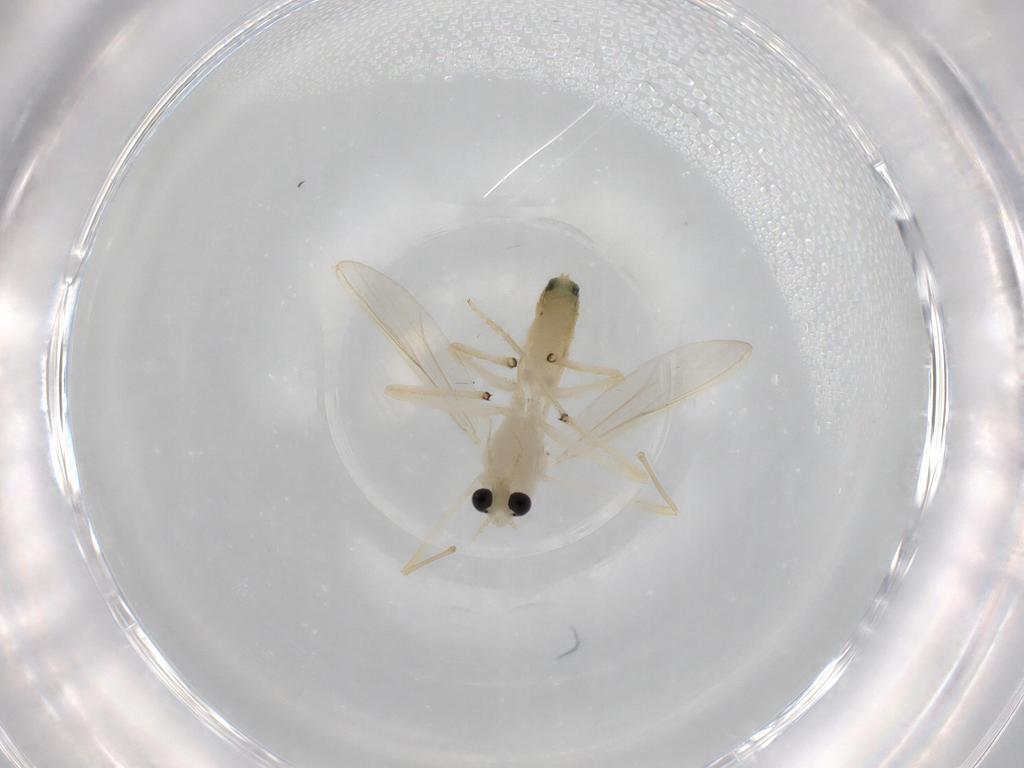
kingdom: Animalia
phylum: Arthropoda
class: Insecta
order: Diptera
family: Chironomidae
